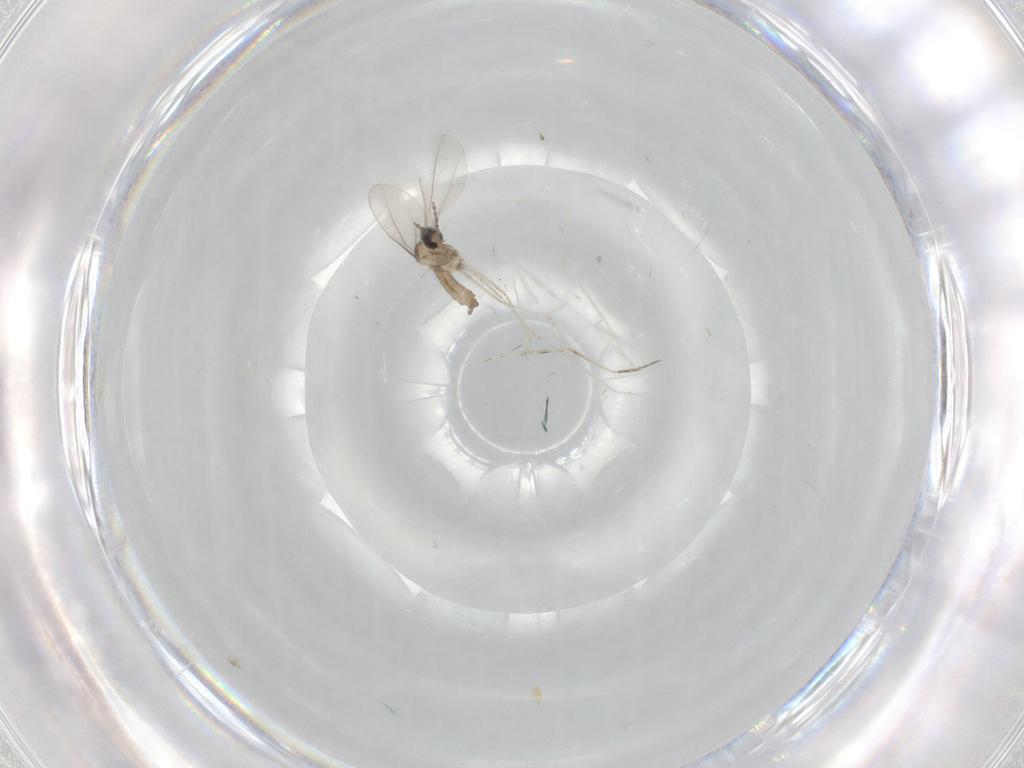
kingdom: Animalia
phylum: Arthropoda
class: Insecta
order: Diptera
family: Cecidomyiidae
